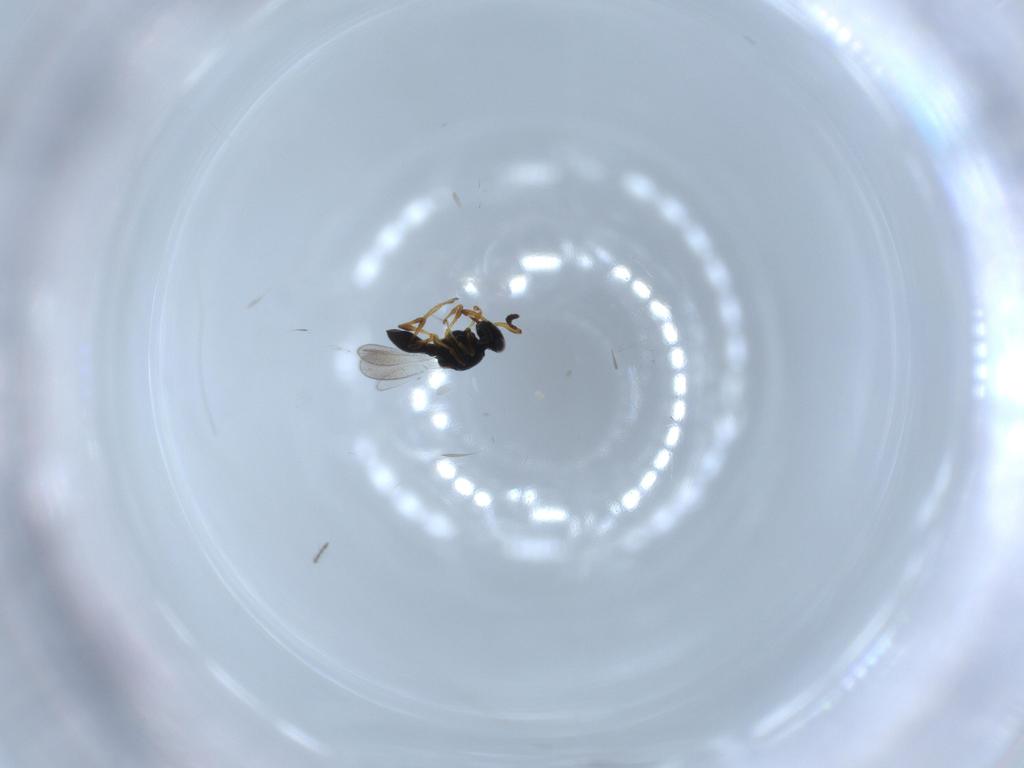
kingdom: Animalia
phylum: Arthropoda
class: Insecta
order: Hymenoptera
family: Platygastridae
